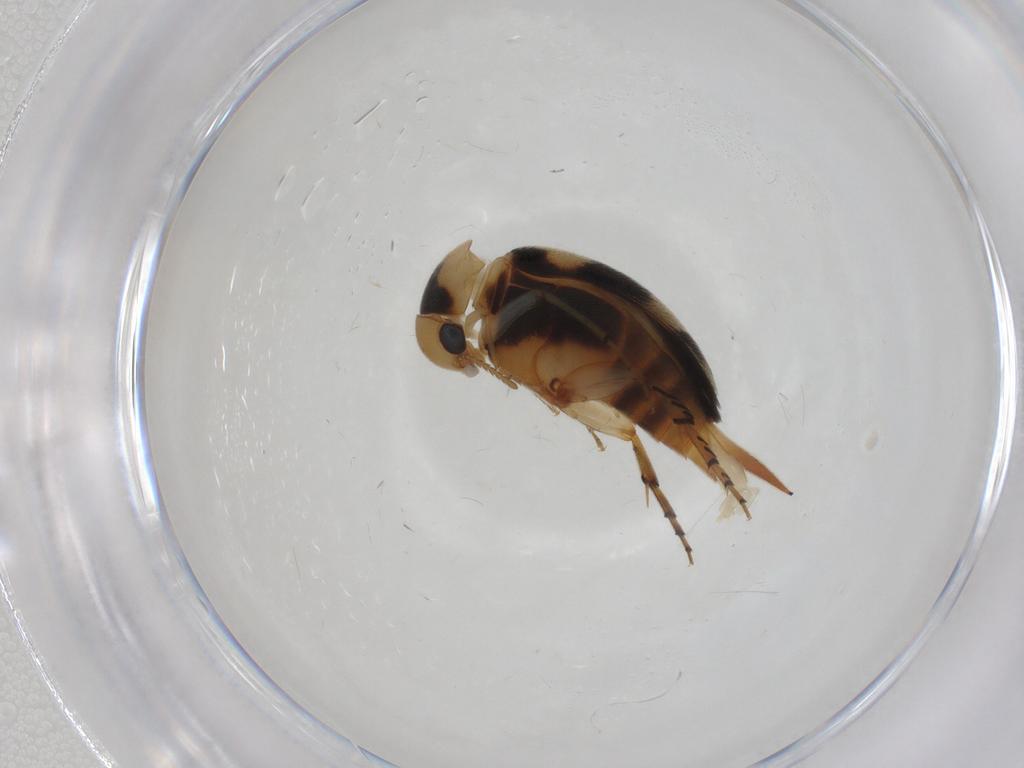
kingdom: Animalia
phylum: Arthropoda
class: Insecta
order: Coleoptera
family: Mordellidae
